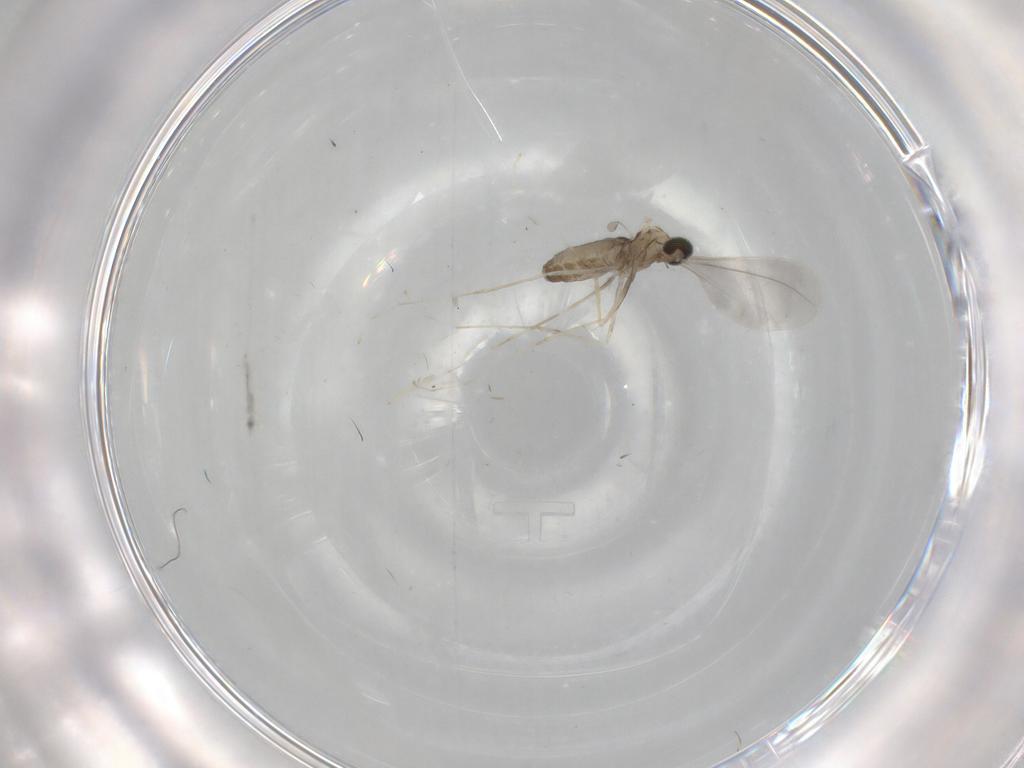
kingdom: Animalia
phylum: Arthropoda
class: Insecta
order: Diptera
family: Cecidomyiidae
